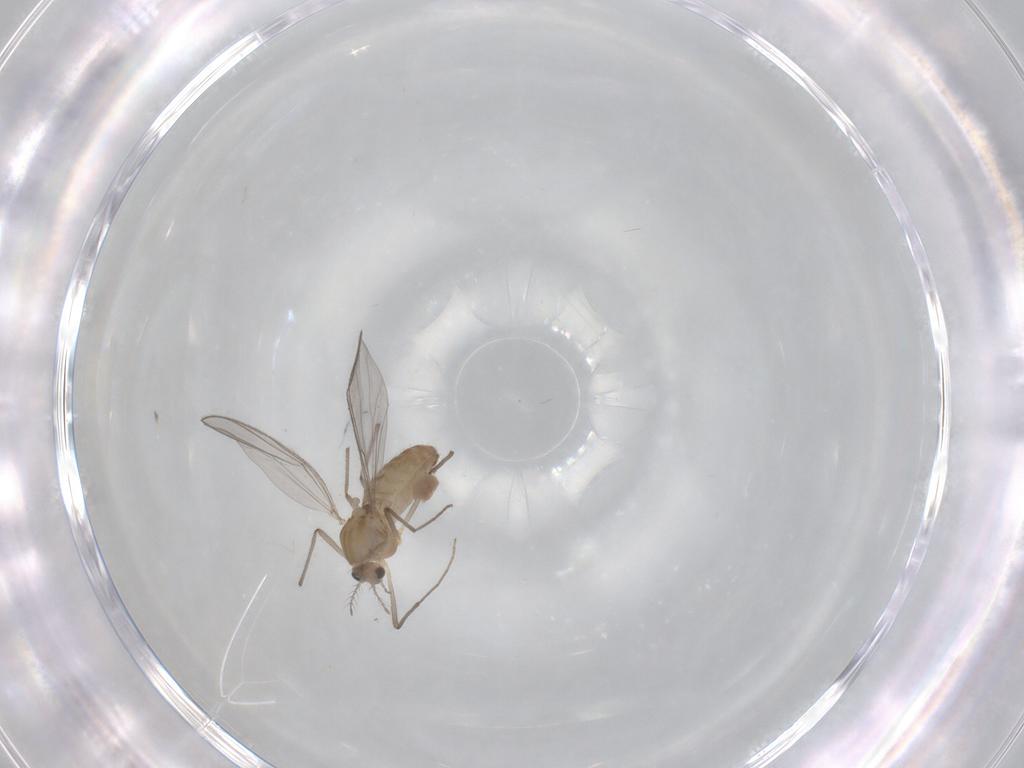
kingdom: Animalia
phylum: Arthropoda
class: Insecta
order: Diptera
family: Chironomidae
